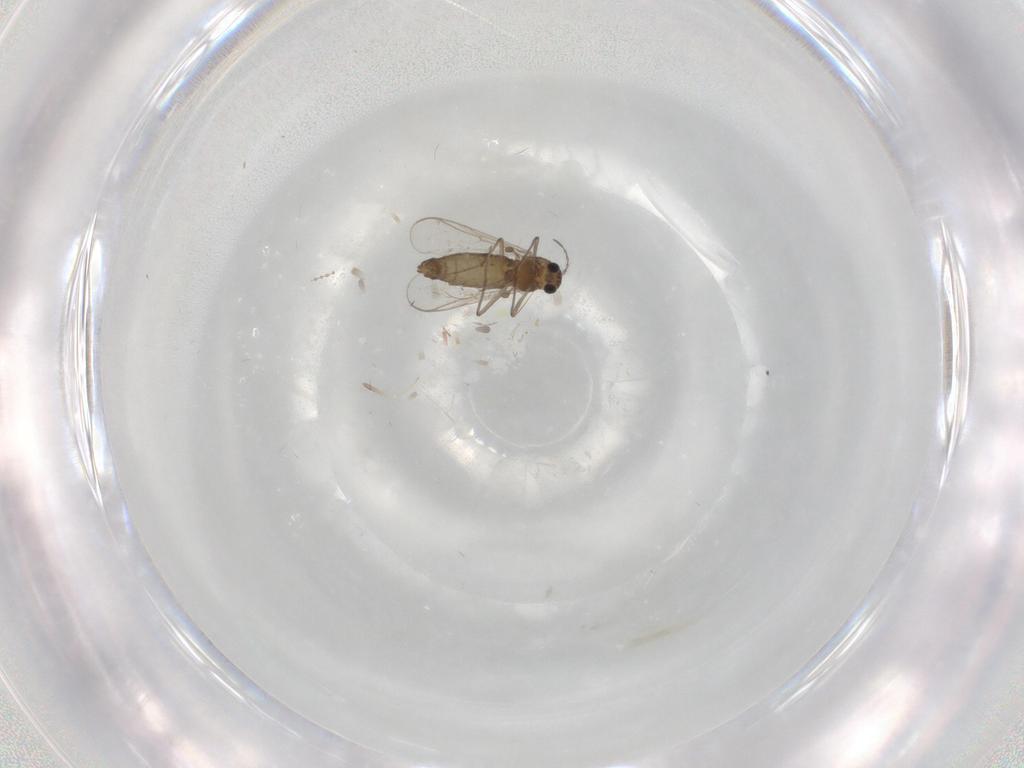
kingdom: Animalia
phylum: Arthropoda
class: Insecta
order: Diptera
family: Chironomidae
